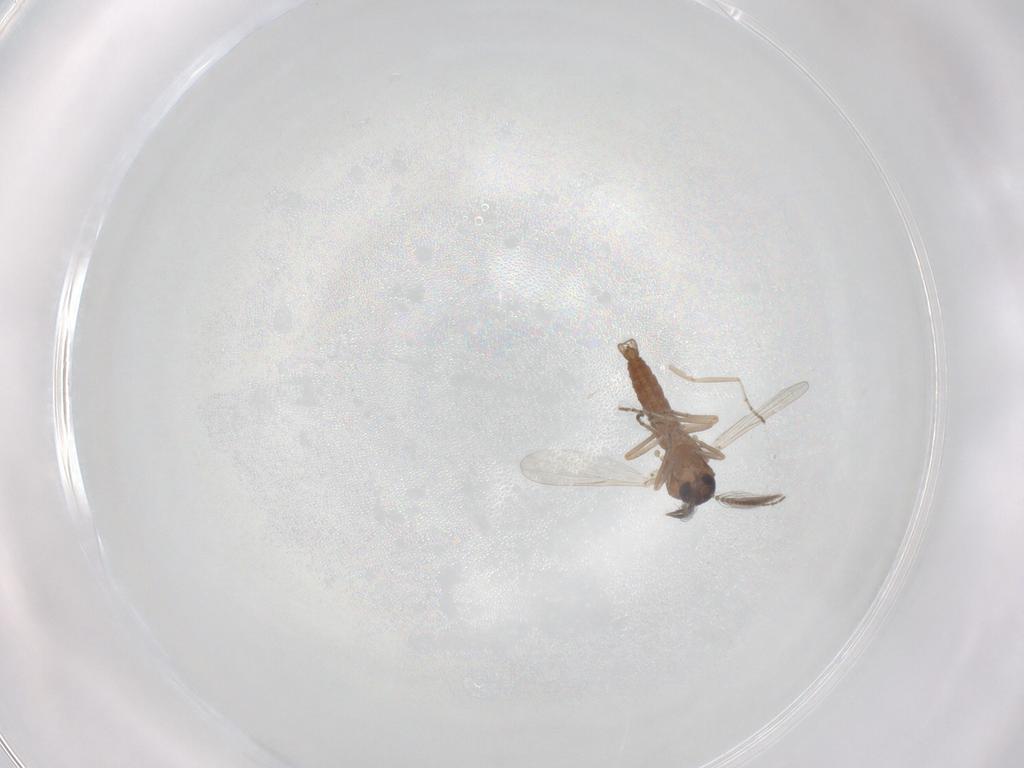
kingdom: Animalia
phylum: Arthropoda
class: Insecta
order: Diptera
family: Ceratopogonidae
